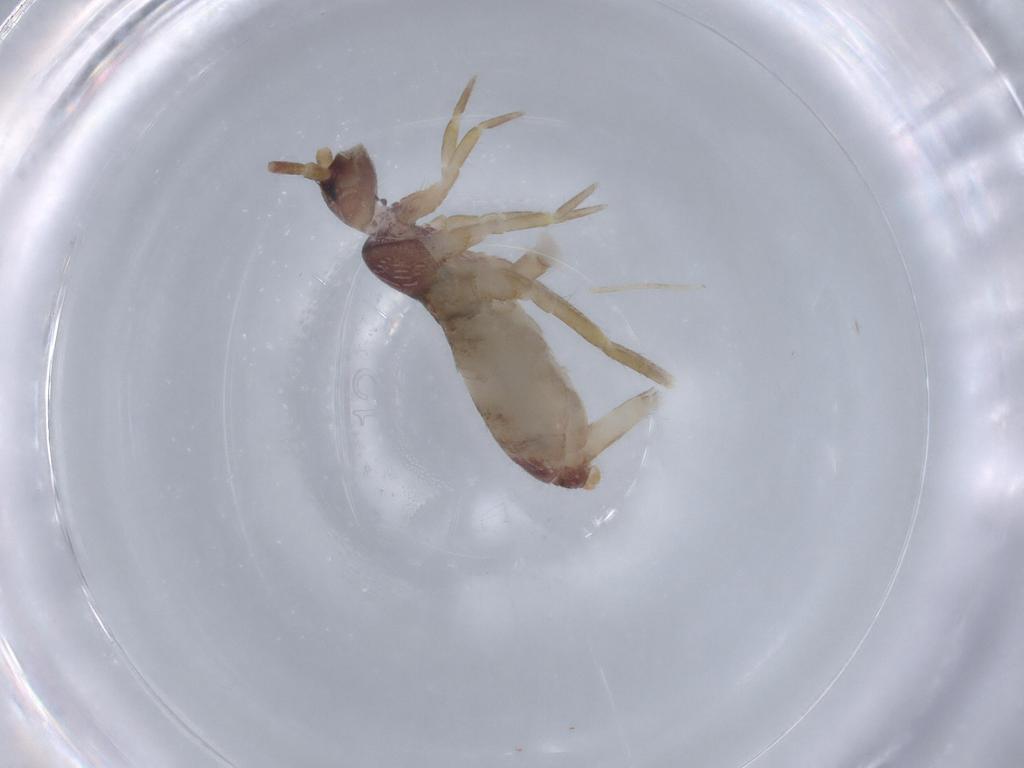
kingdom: Animalia
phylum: Arthropoda
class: Collembola
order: Entomobryomorpha
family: Tomoceridae
